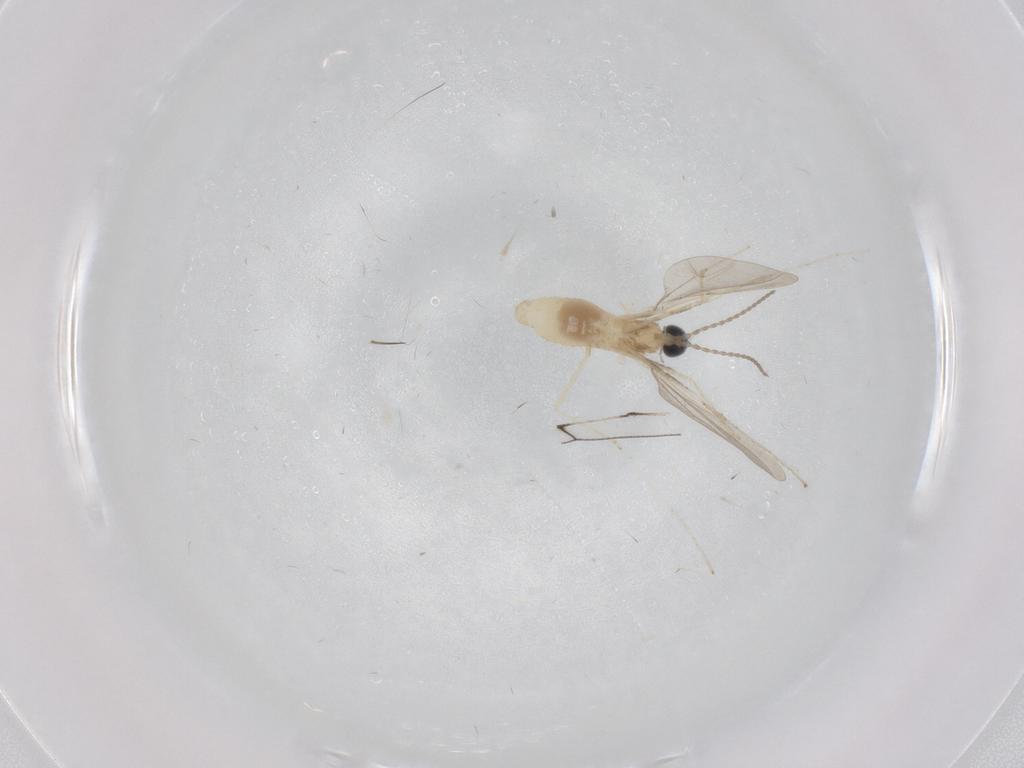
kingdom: Animalia
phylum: Arthropoda
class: Insecta
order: Diptera
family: Cecidomyiidae
